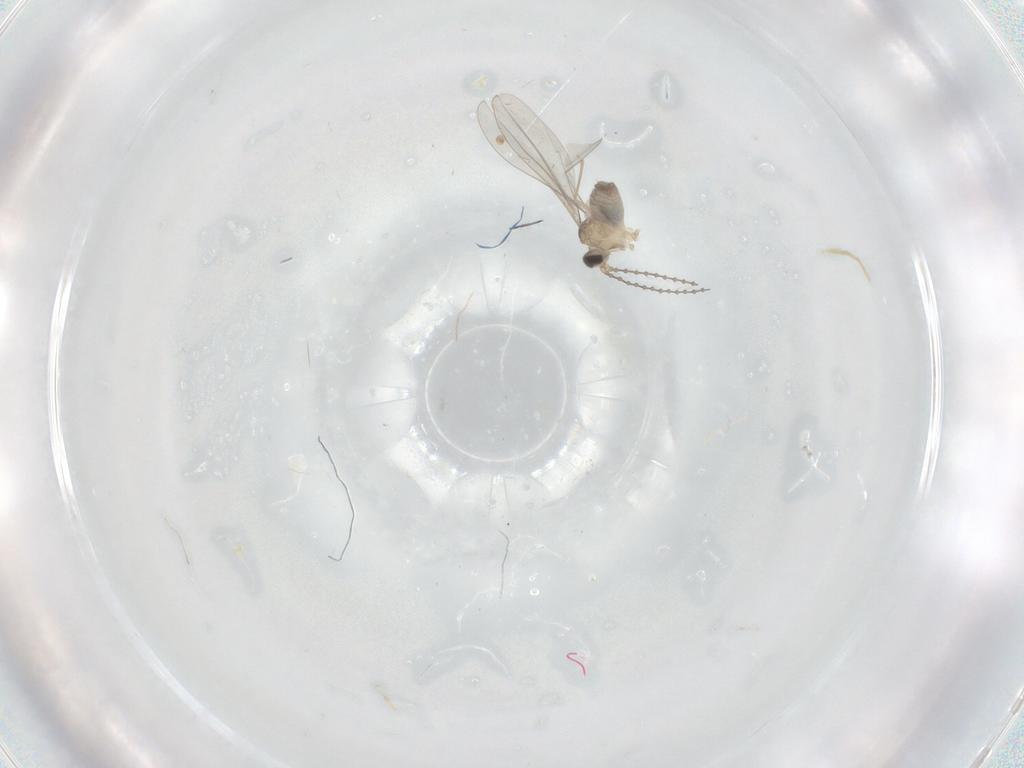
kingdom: Animalia
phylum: Arthropoda
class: Insecta
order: Diptera
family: Cecidomyiidae
